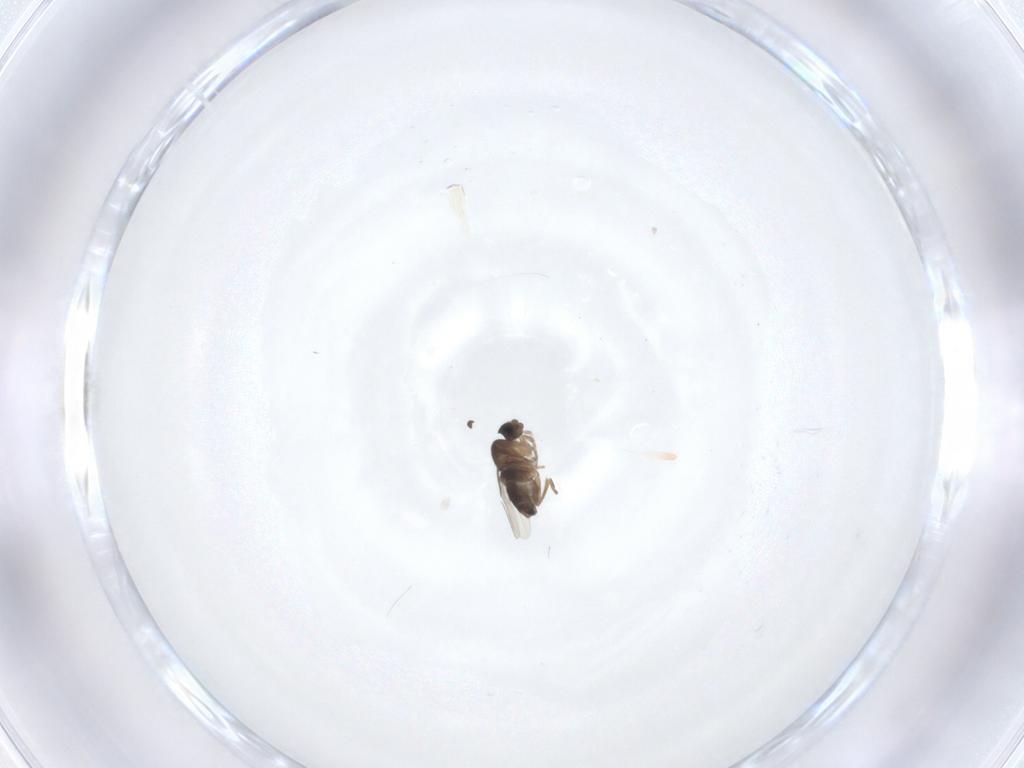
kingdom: Animalia
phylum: Arthropoda
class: Insecta
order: Diptera
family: Phoridae
